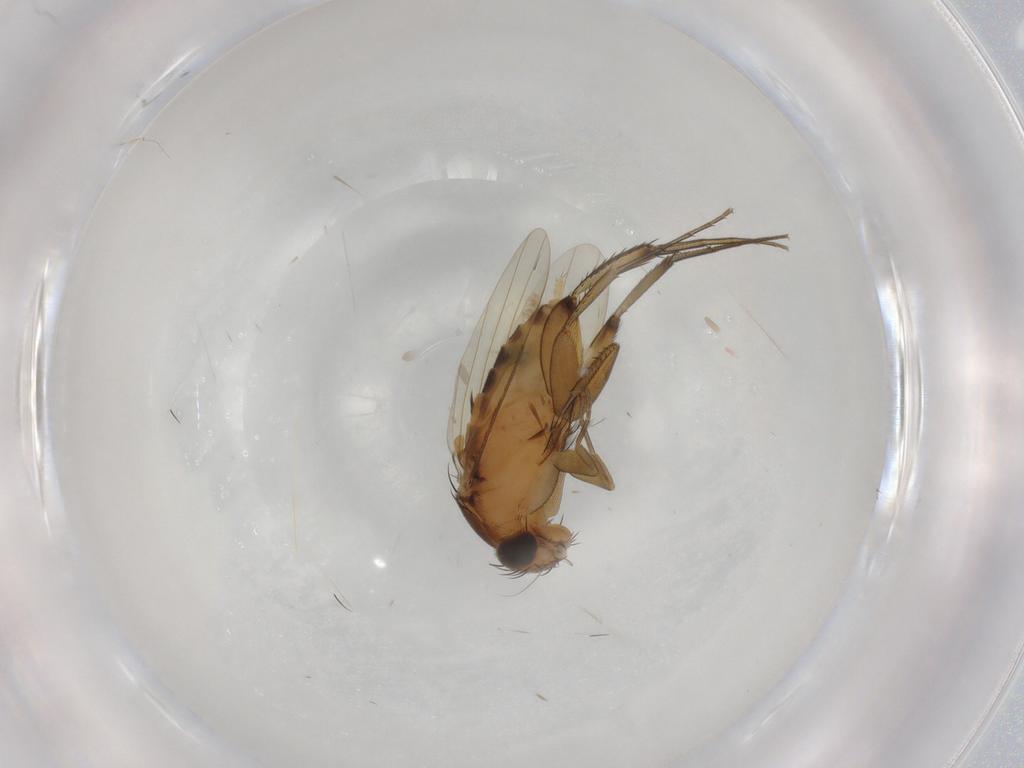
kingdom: Animalia
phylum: Arthropoda
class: Insecta
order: Diptera
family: Phoridae
